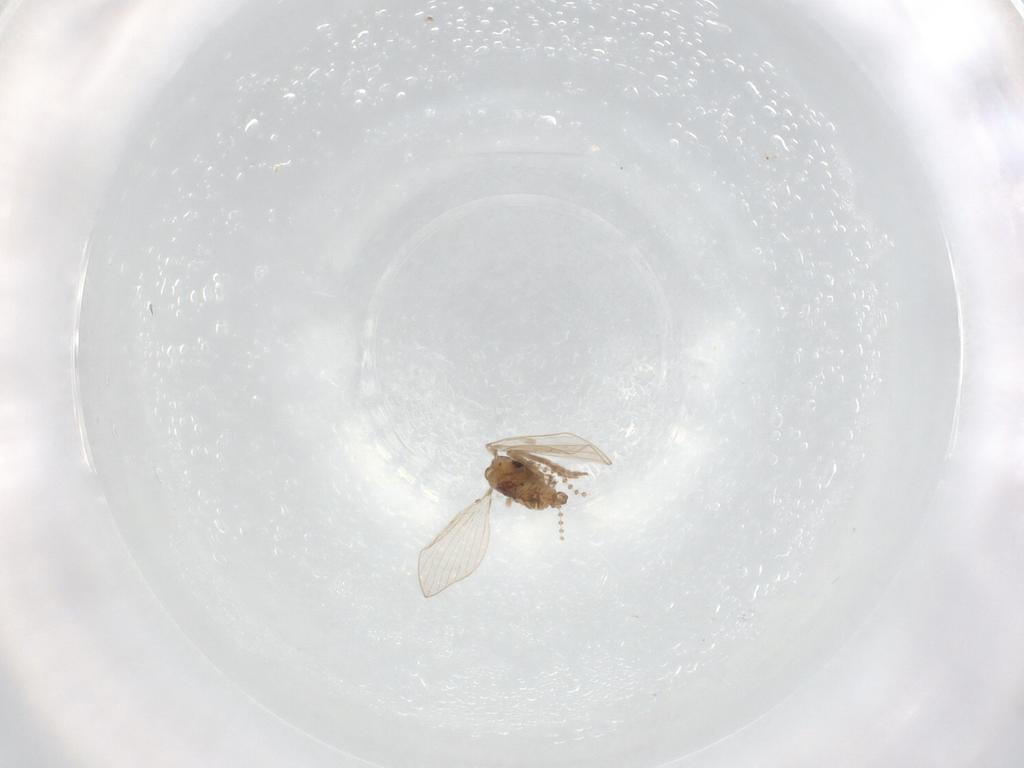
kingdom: Animalia
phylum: Arthropoda
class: Insecta
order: Diptera
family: Psychodidae
